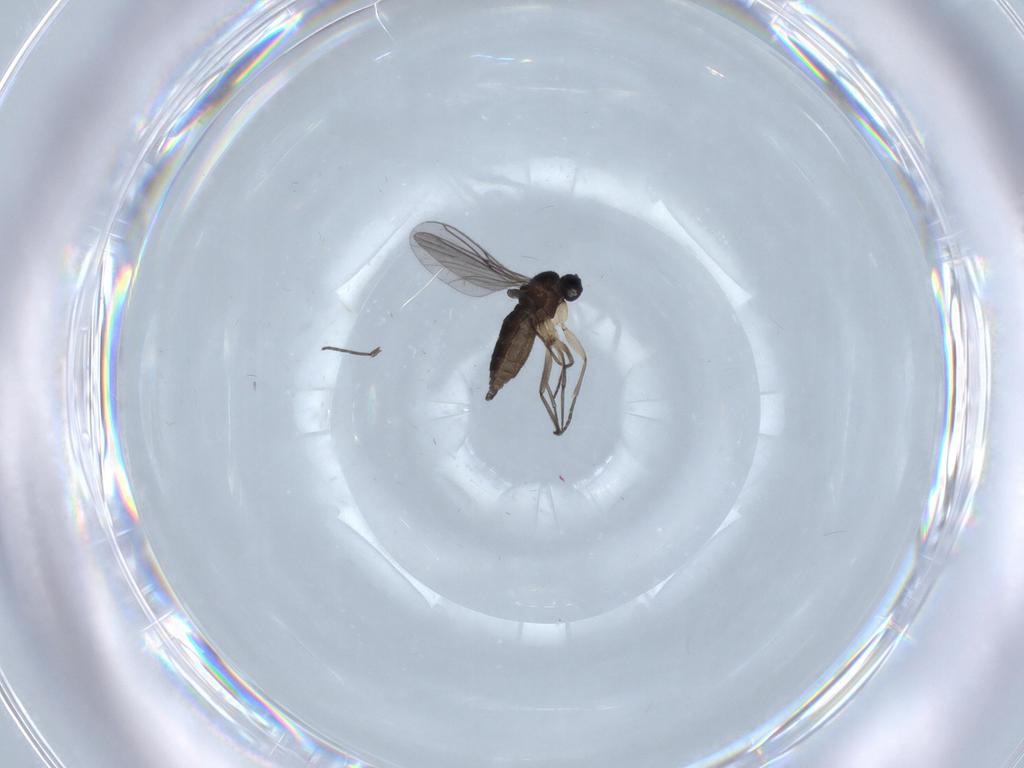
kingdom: Animalia
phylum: Arthropoda
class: Insecta
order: Diptera
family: Sciaridae
